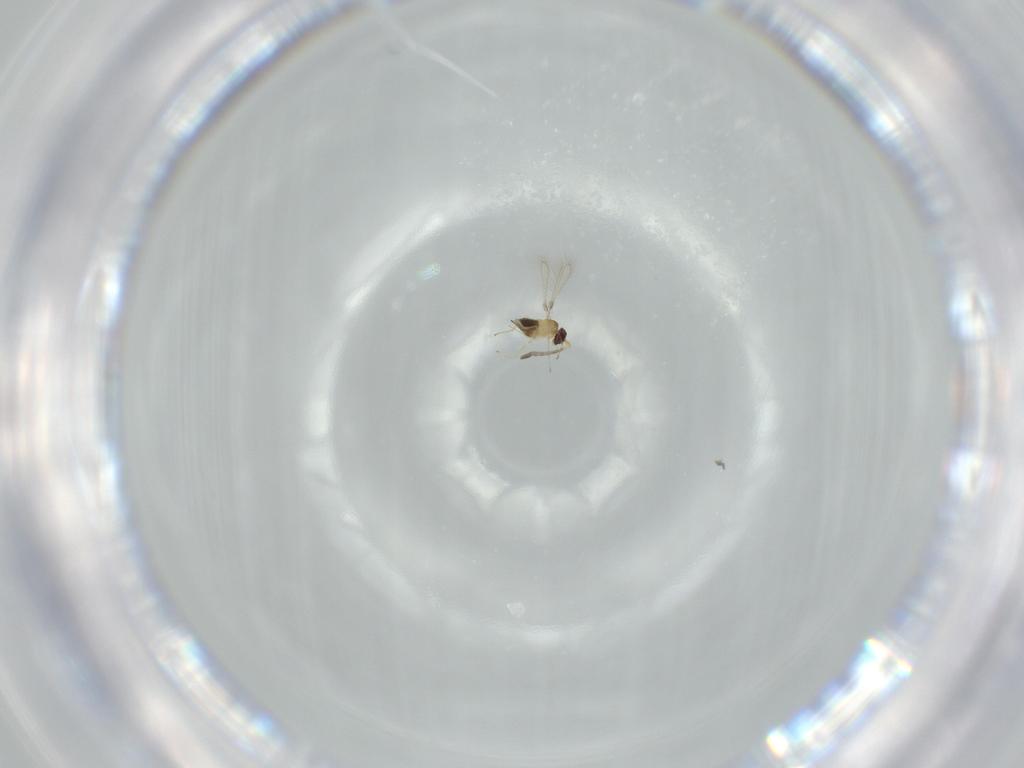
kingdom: Animalia
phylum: Arthropoda
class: Insecta
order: Hymenoptera
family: Mymaridae
